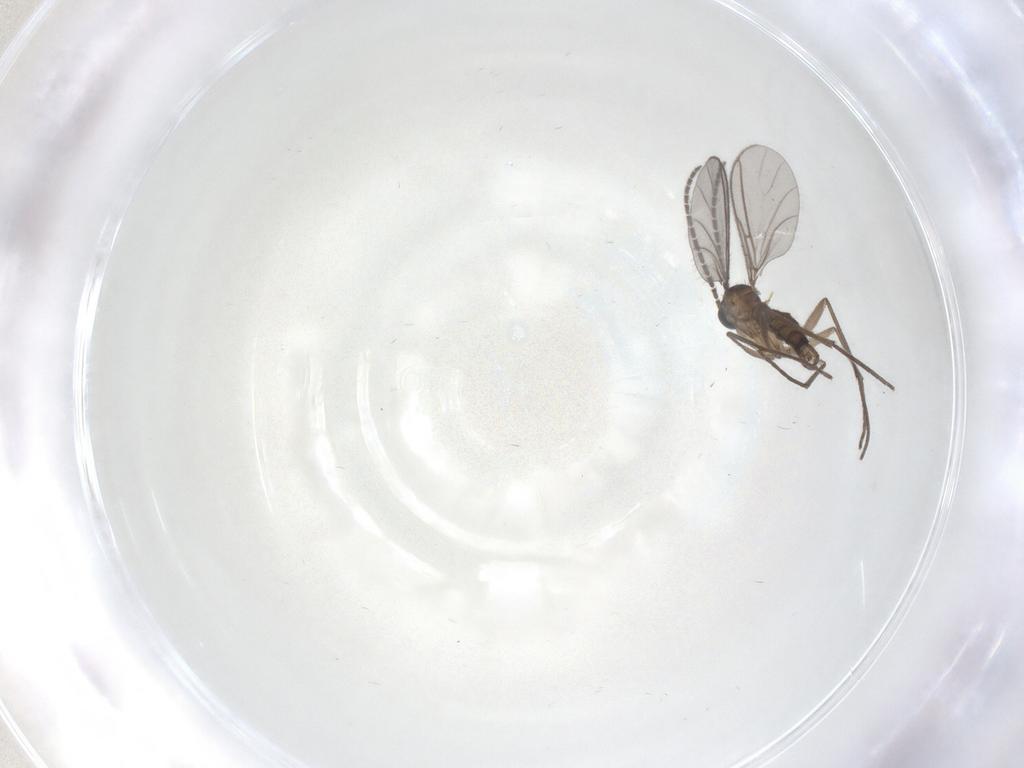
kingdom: Animalia
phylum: Arthropoda
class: Insecta
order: Diptera
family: Sciaridae
